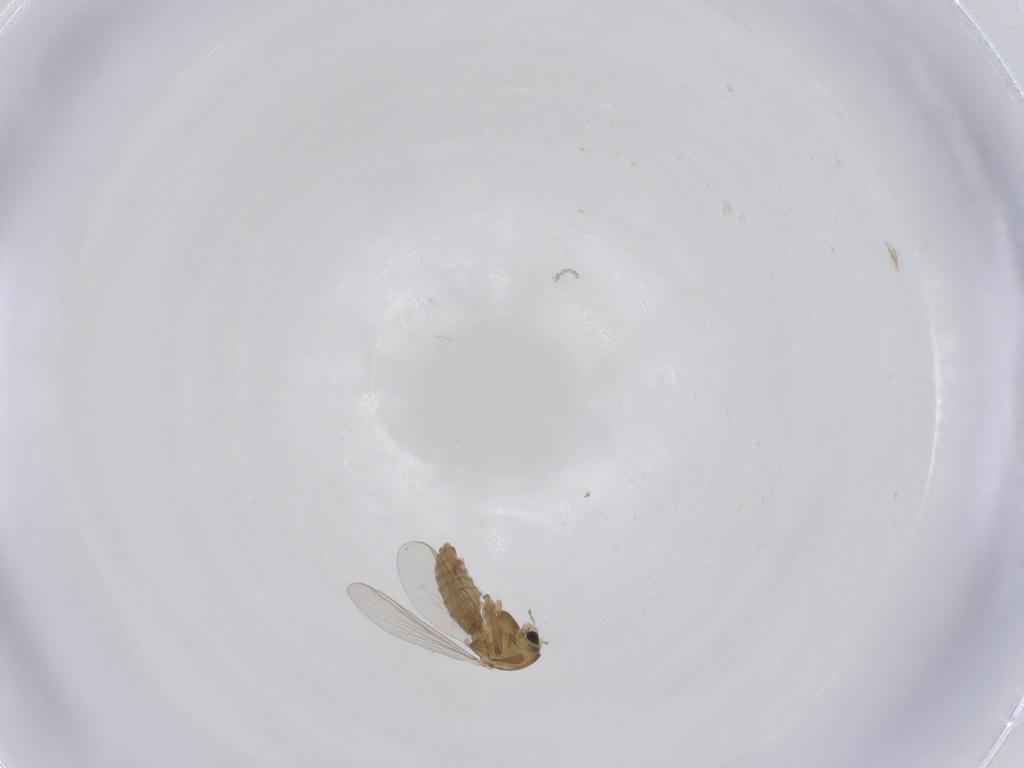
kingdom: Animalia
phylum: Arthropoda
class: Insecta
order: Diptera
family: Chironomidae
